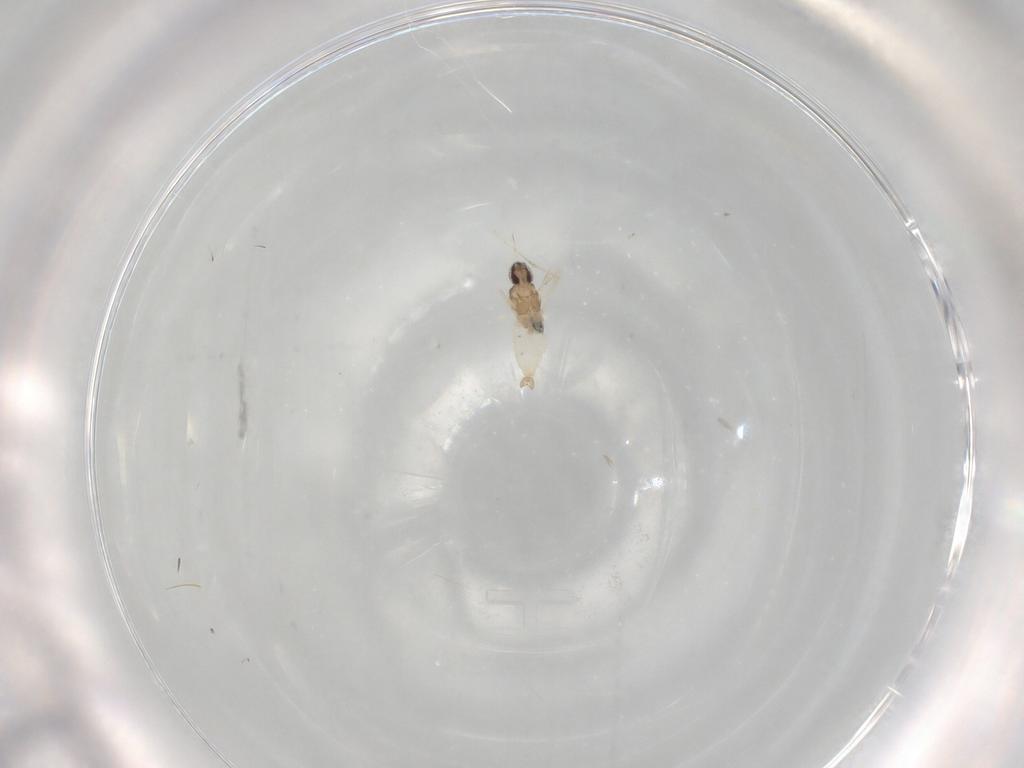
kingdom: Animalia
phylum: Arthropoda
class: Insecta
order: Diptera
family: Cecidomyiidae
